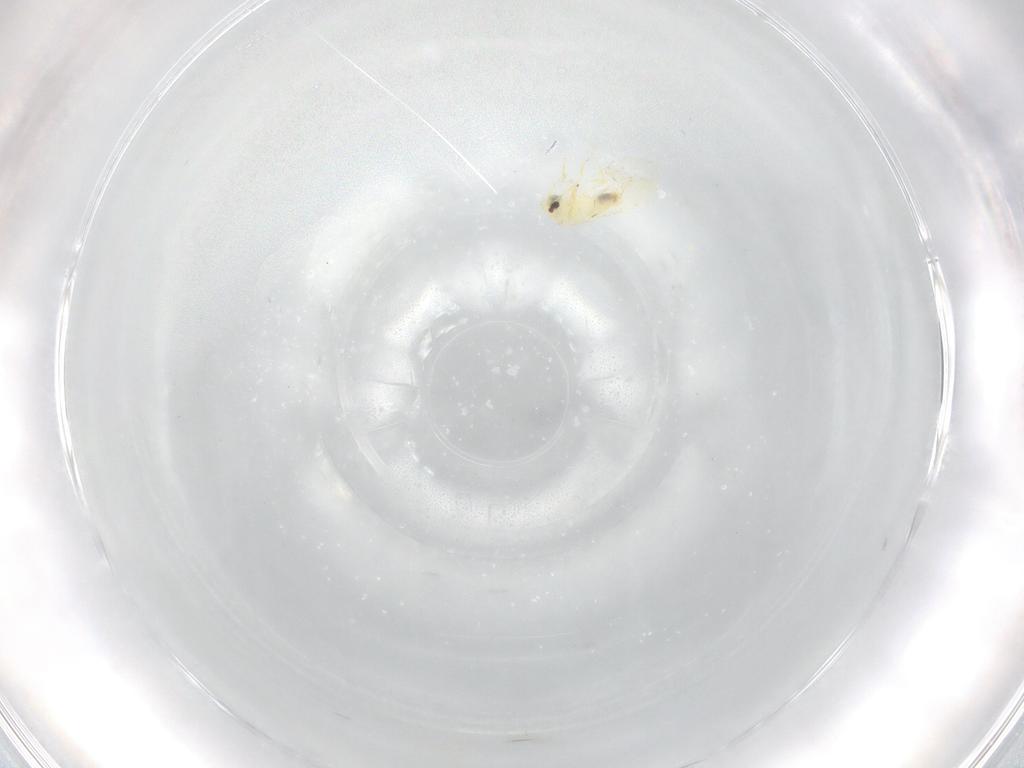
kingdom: Animalia
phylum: Arthropoda
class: Insecta
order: Hemiptera
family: Aleyrodidae
